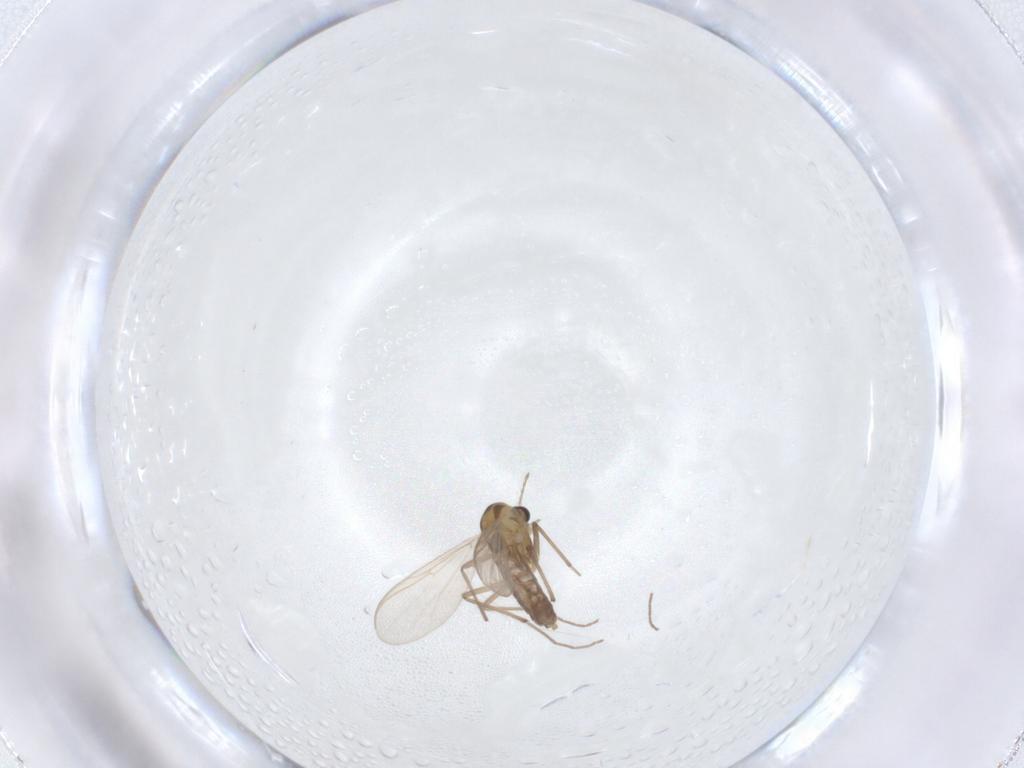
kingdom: Animalia
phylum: Arthropoda
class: Insecta
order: Diptera
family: Chironomidae
